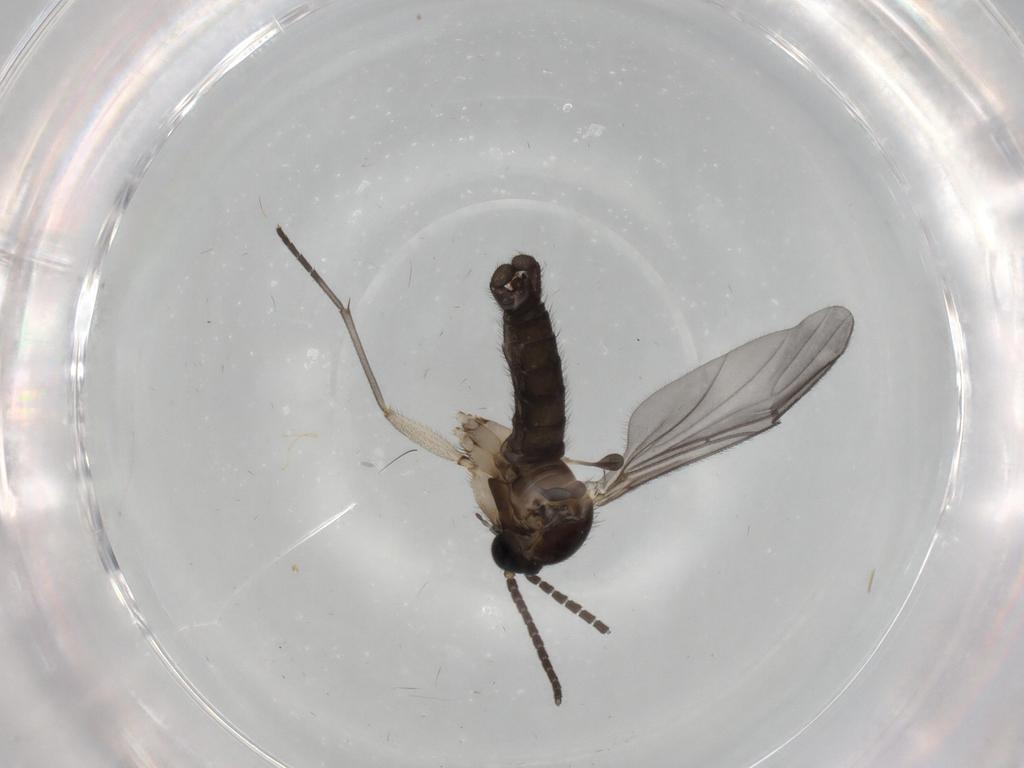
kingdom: Animalia
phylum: Arthropoda
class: Insecta
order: Diptera
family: Sciaridae
